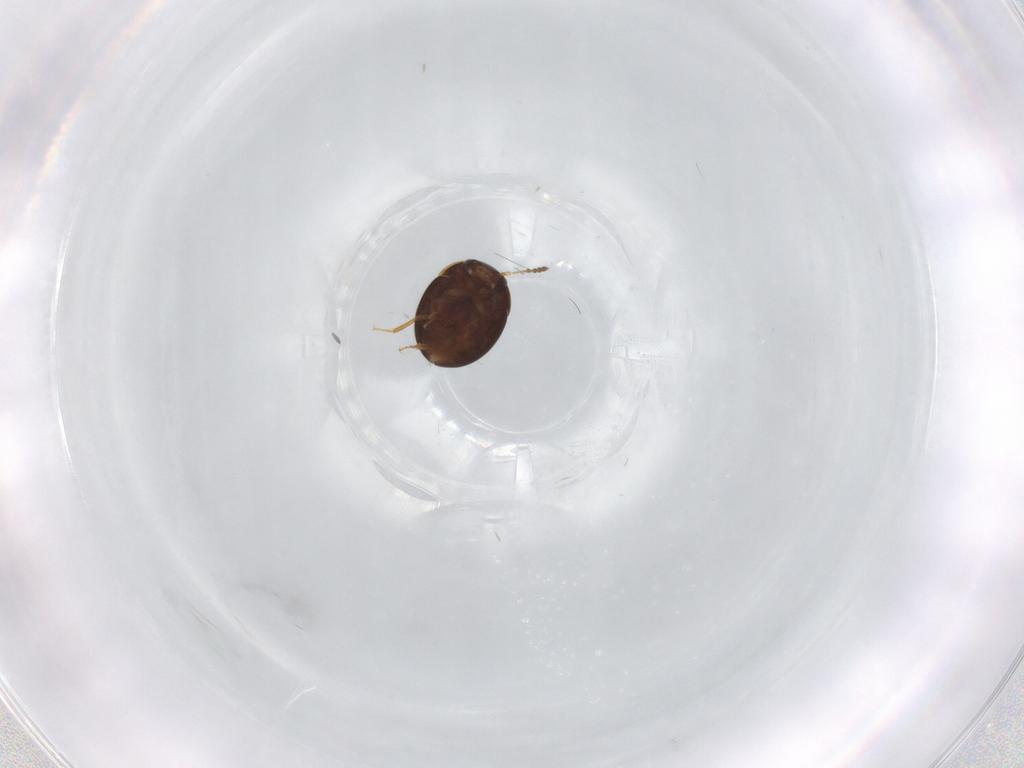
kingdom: Animalia
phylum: Arthropoda
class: Insecta
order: Coleoptera
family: Leiodidae
